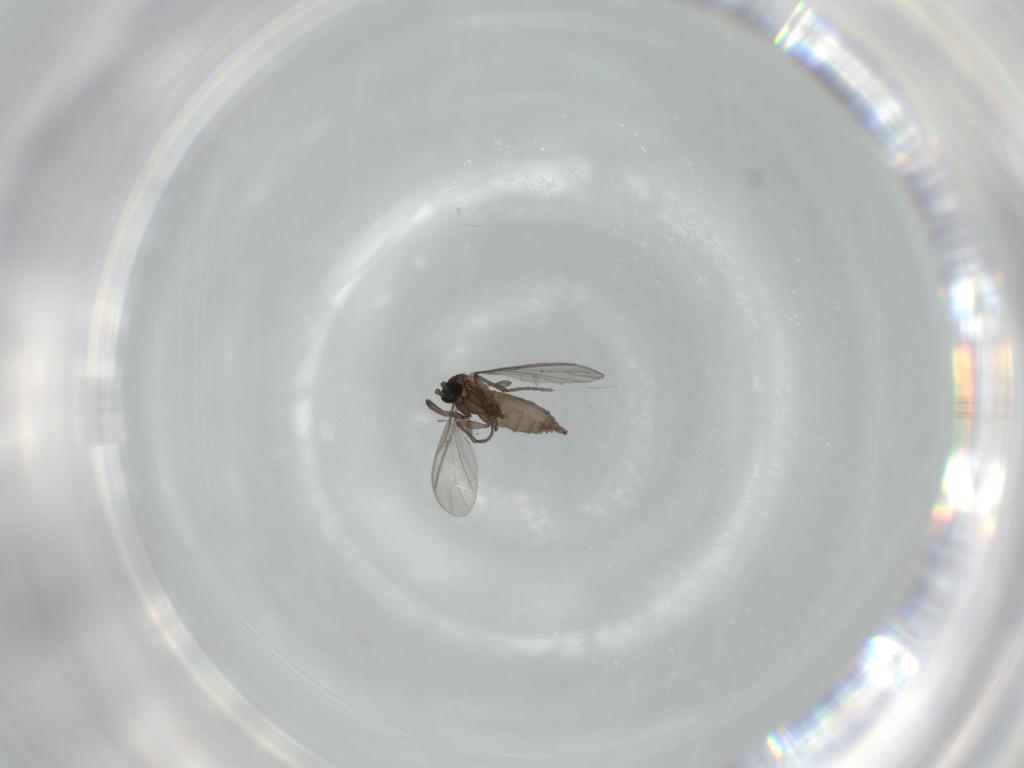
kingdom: Animalia
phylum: Arthropoda
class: Insecta
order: Diptera
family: Sciaridae
